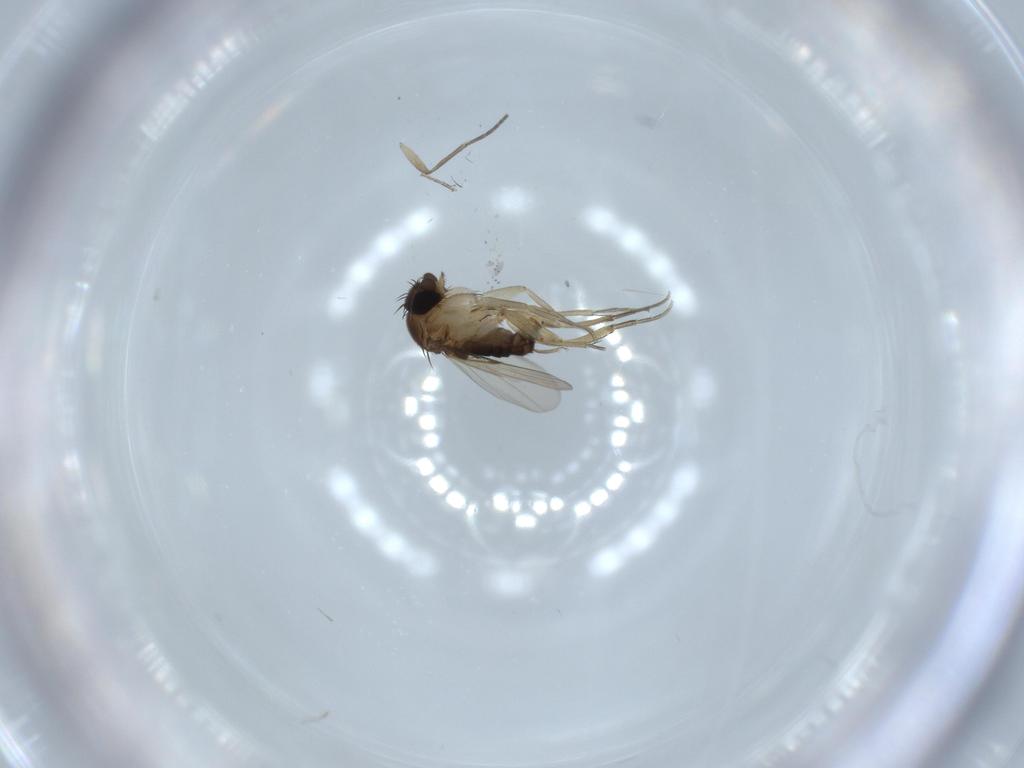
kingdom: Animalia
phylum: Arthropoda
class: Insecta
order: Diptera
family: Phoridae
